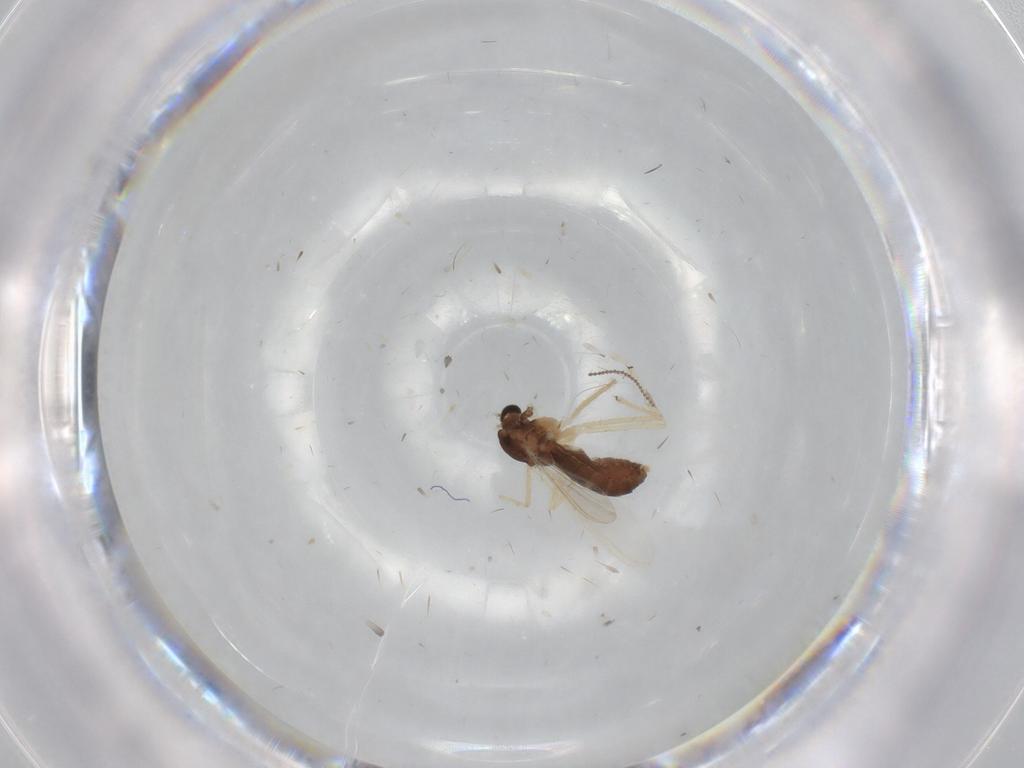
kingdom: Animalia
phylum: Arthropoda
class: Insecta
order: Diptera
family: Chironomidae
